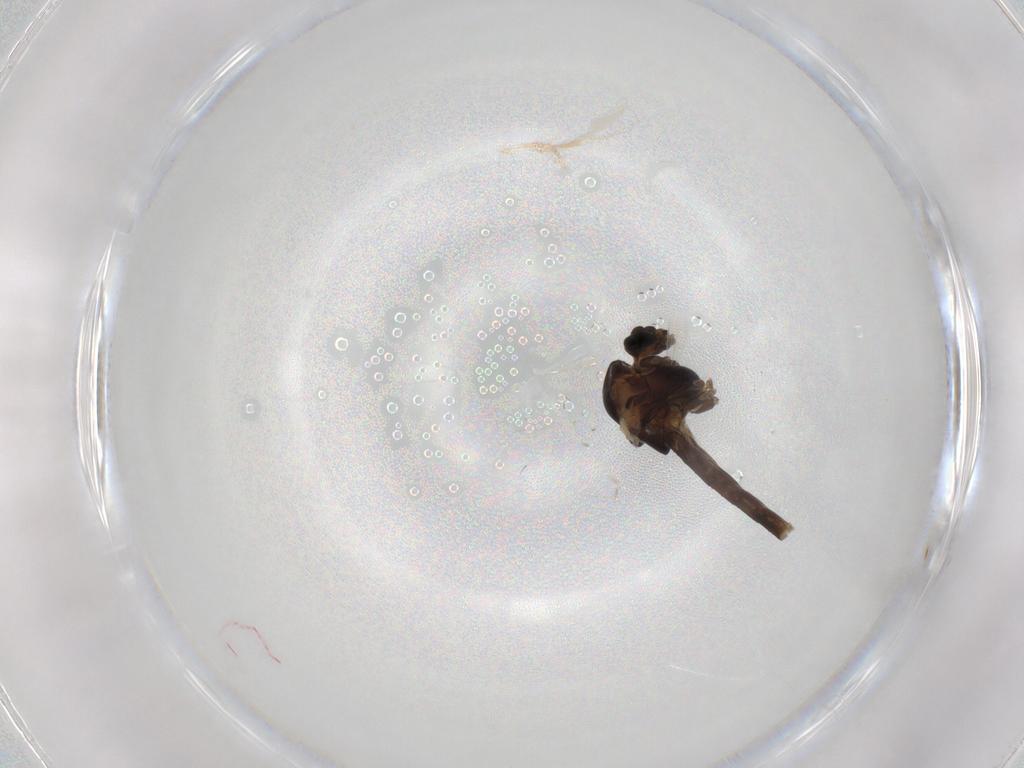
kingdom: Animalia
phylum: Arthropoda
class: Insecta
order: Diptera
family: Chironomidae
